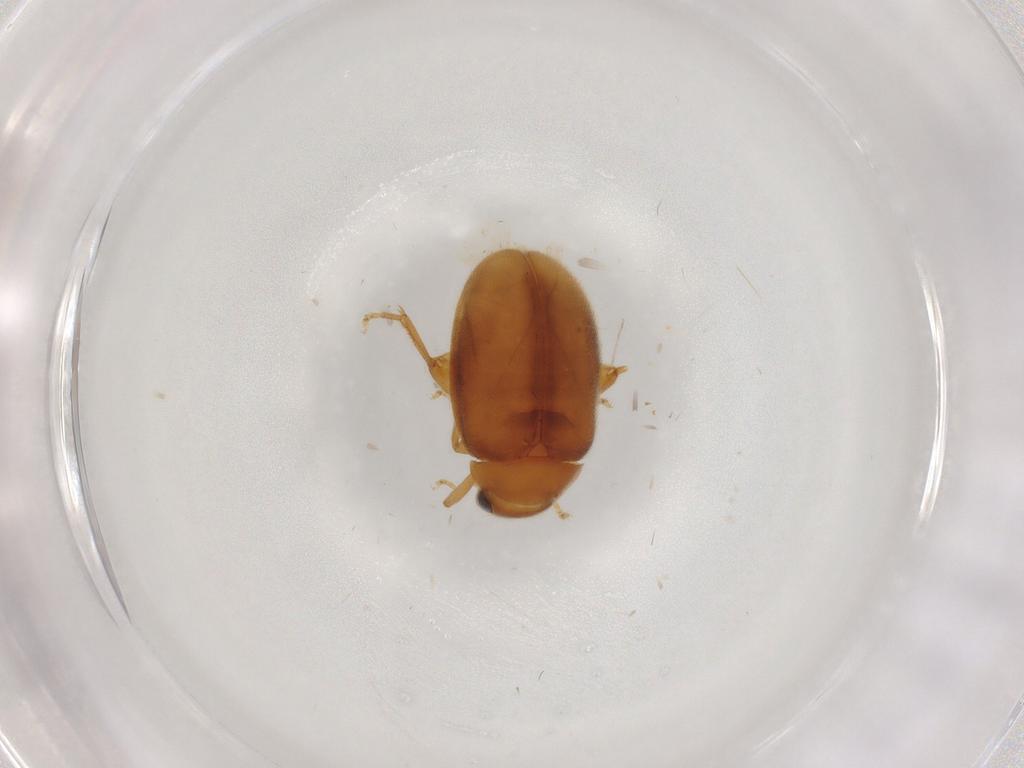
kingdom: Animalia
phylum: Arthropoda
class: Insecta
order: Coleoptera
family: Scirtidae
